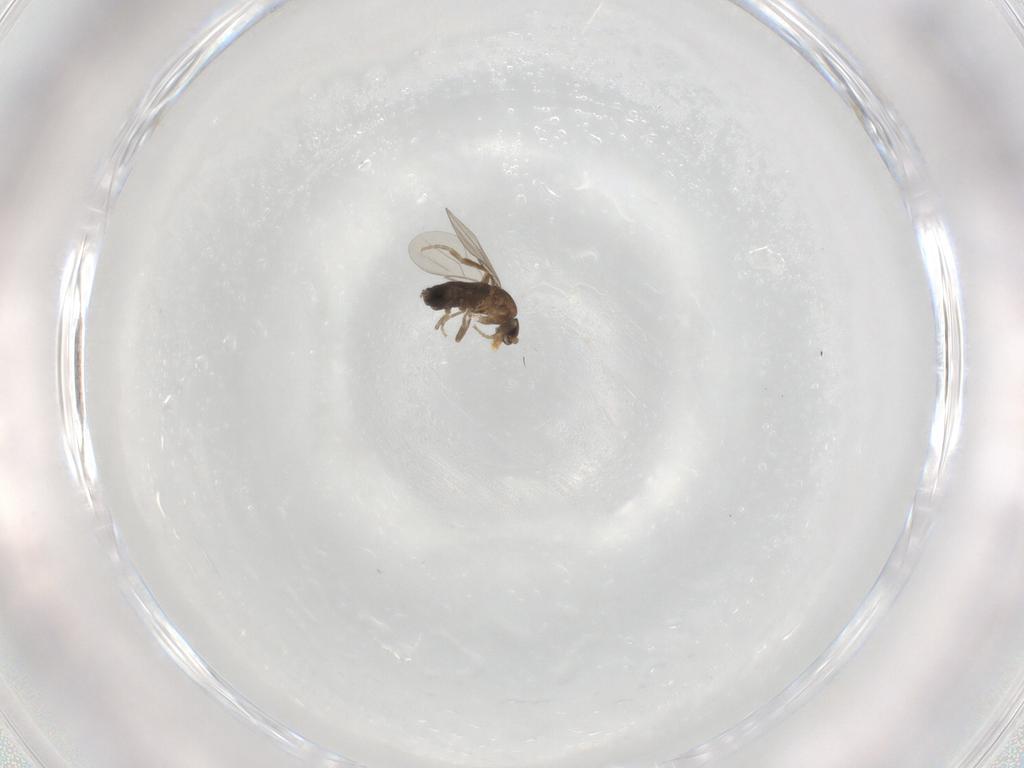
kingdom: Animalia
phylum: Arthropoda
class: Insecta
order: Diptera
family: Phoridae
